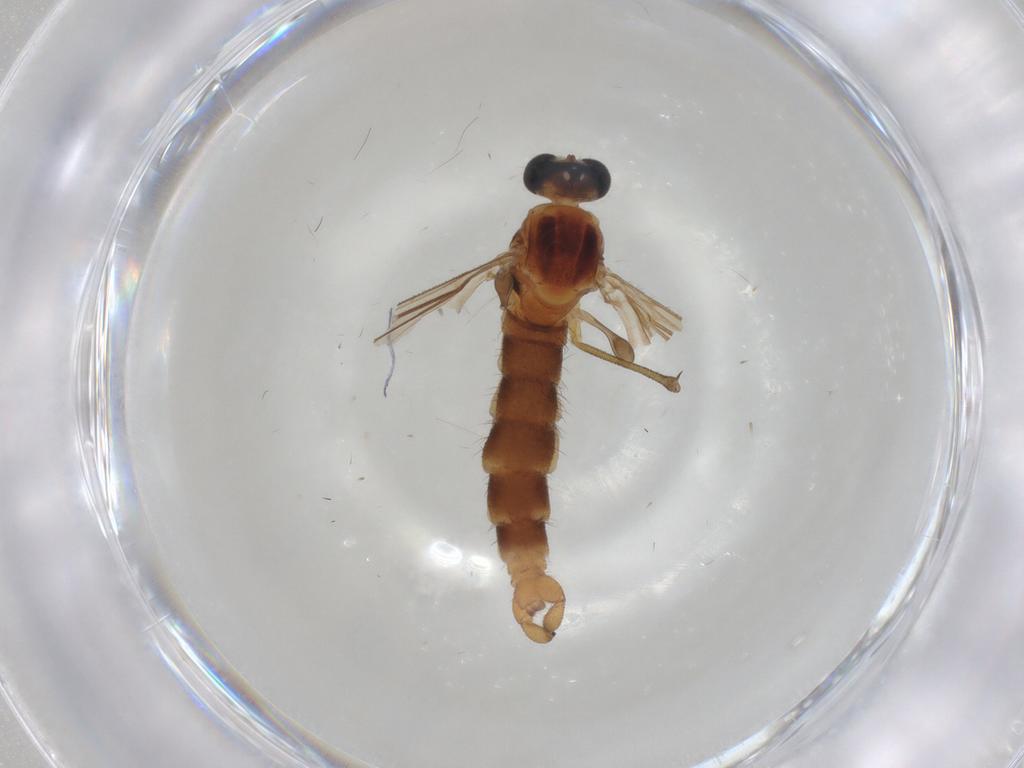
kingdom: Animalia
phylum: Arthropoda
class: Insecta
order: Diptera
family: Sciaridae
